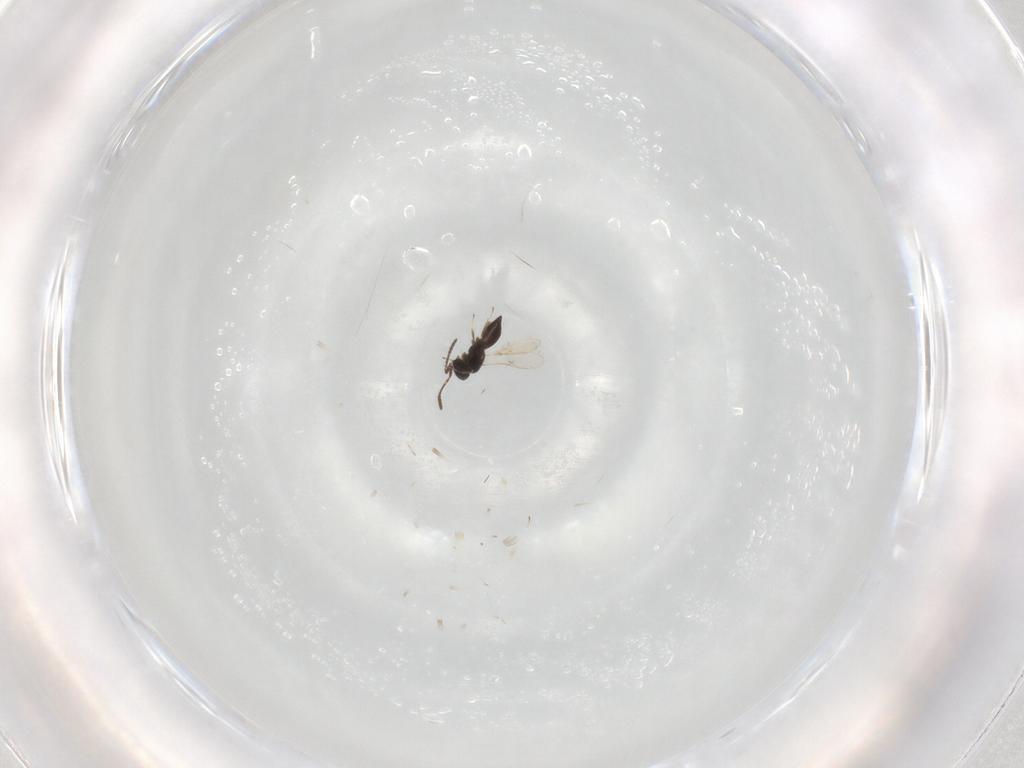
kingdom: Animalia
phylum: Arthropoda
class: Insecta
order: Hymenoptera
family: Scelionidae
